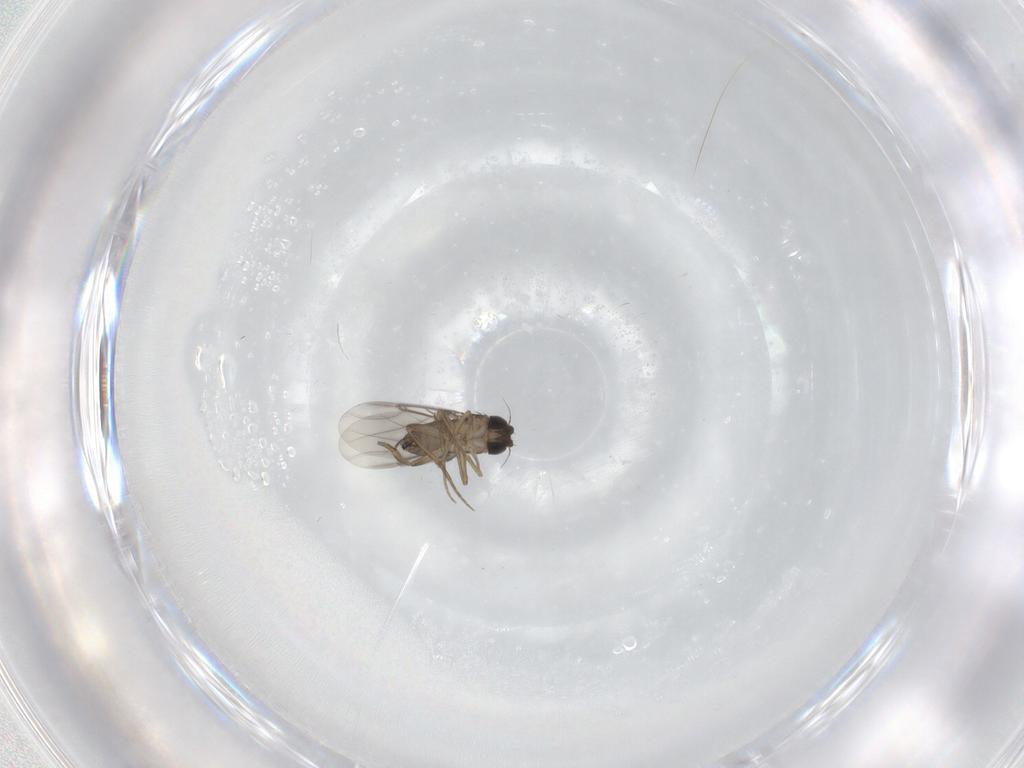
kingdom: Animalia
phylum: Arthropoda
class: Insecta
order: Diptera
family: Phoridae
